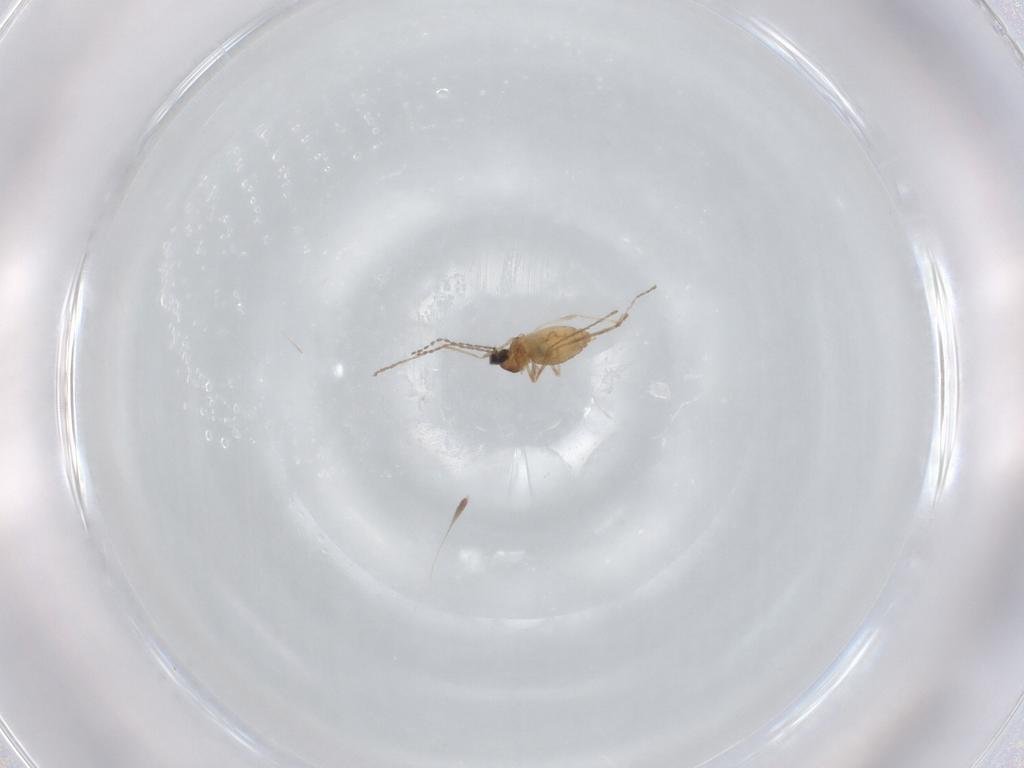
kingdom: Animalia
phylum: Arthropoda
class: Insecta
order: Diptera
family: Cecidomyiidae
